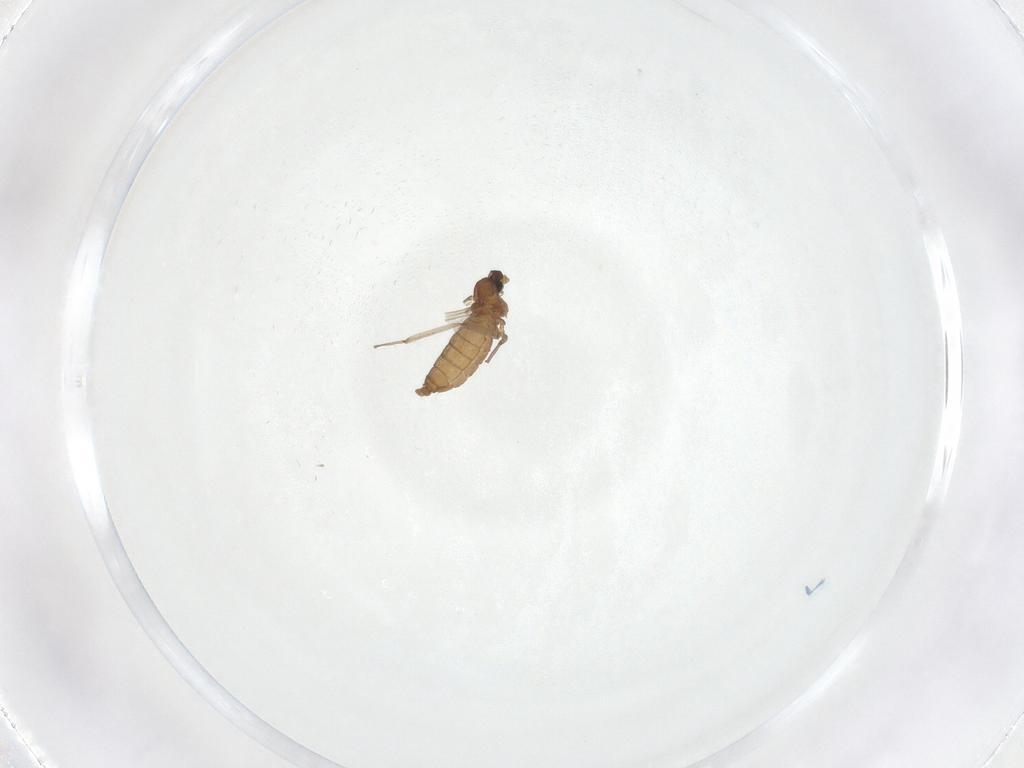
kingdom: Animalia
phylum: Arthropoda
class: Insecta
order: Diptera
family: Cecidomyiidae
